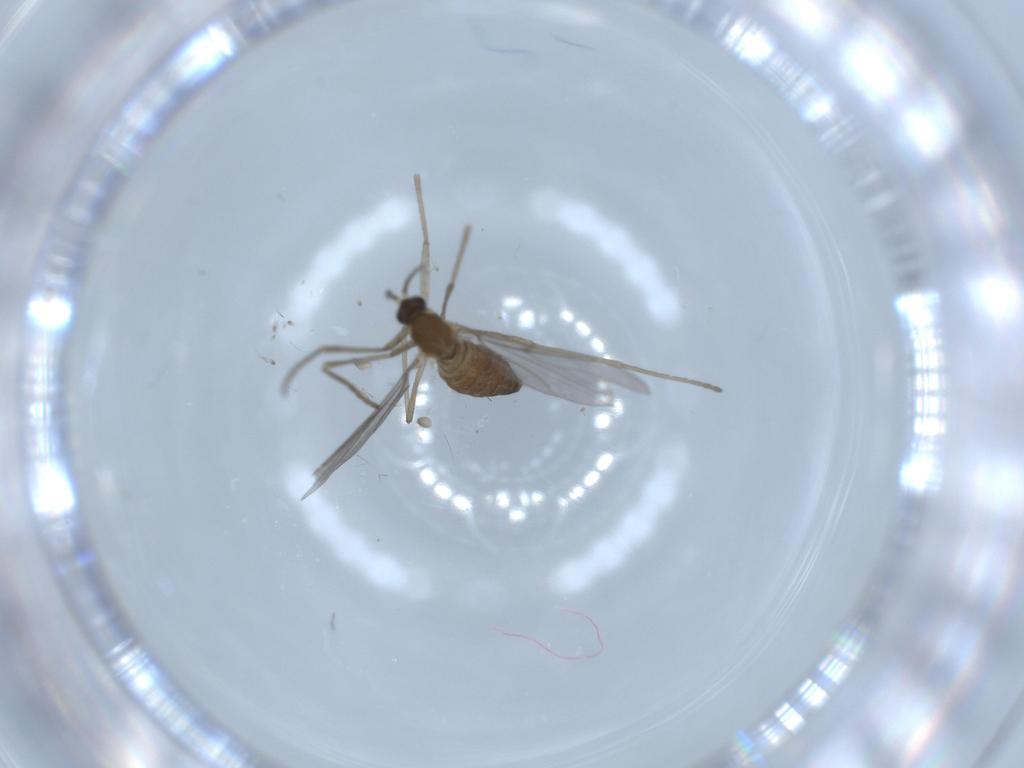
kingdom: Animalia
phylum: Arthropoda
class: Insecta
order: Diptera
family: Cecidomyiidae
